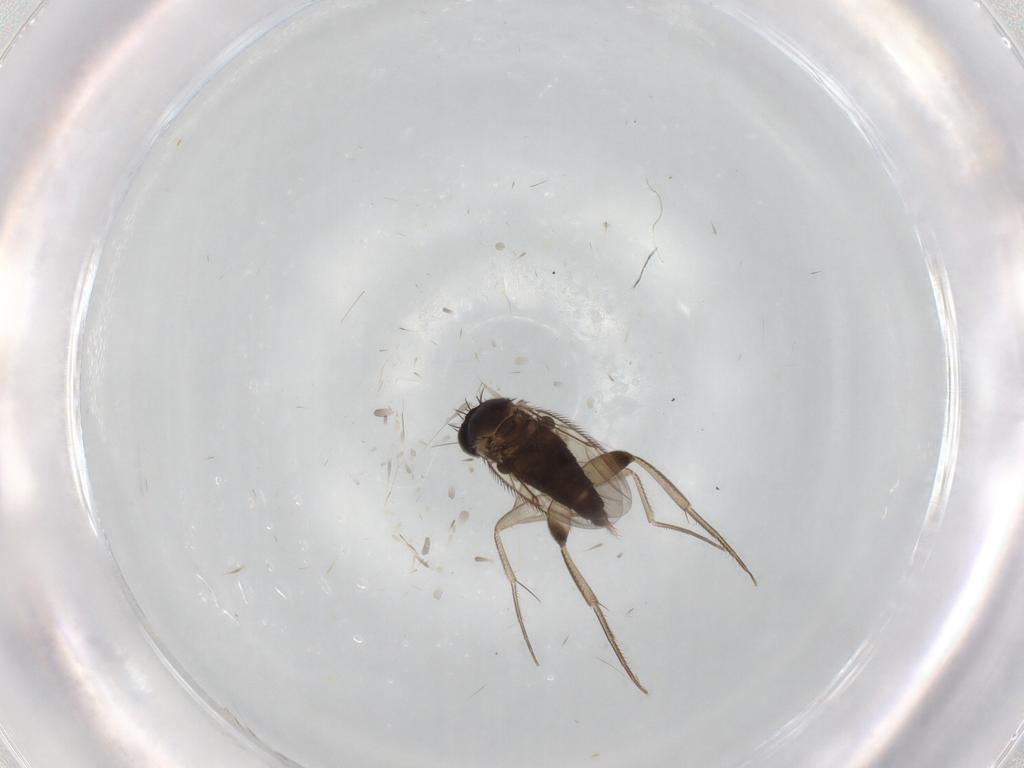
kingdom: Animalia
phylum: Arthropoda
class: Insecta
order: Diptera
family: Phoridae
